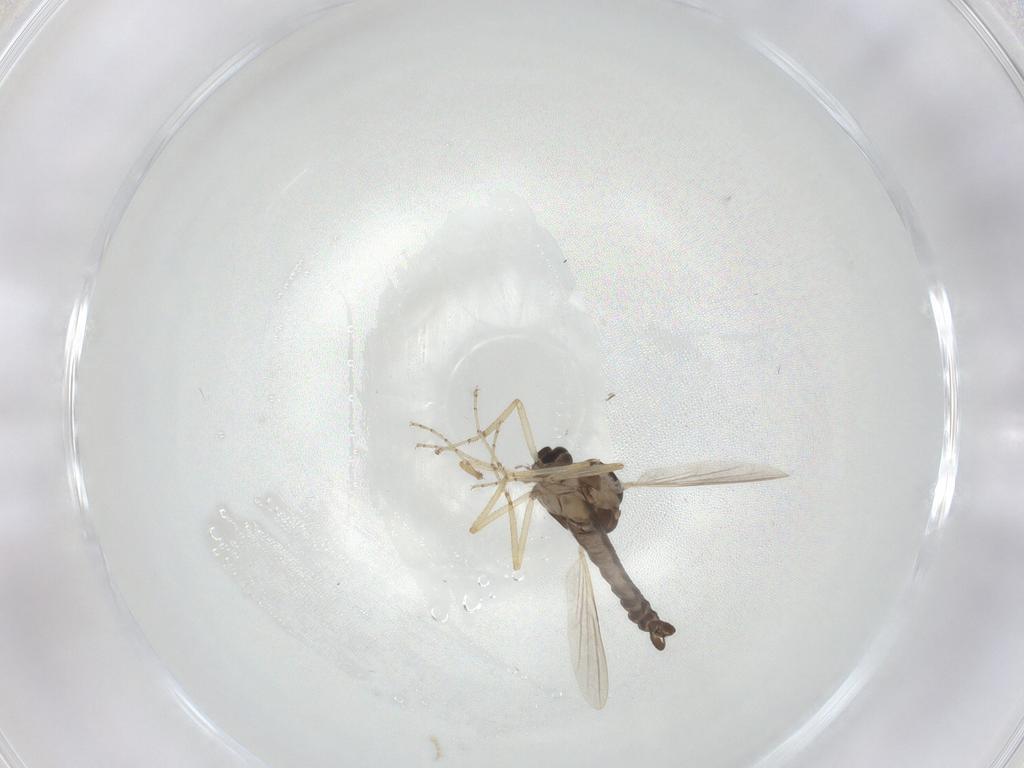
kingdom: Animalia
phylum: Arthropoda
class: Insecta
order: Diptera
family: Ceratopogonidae
